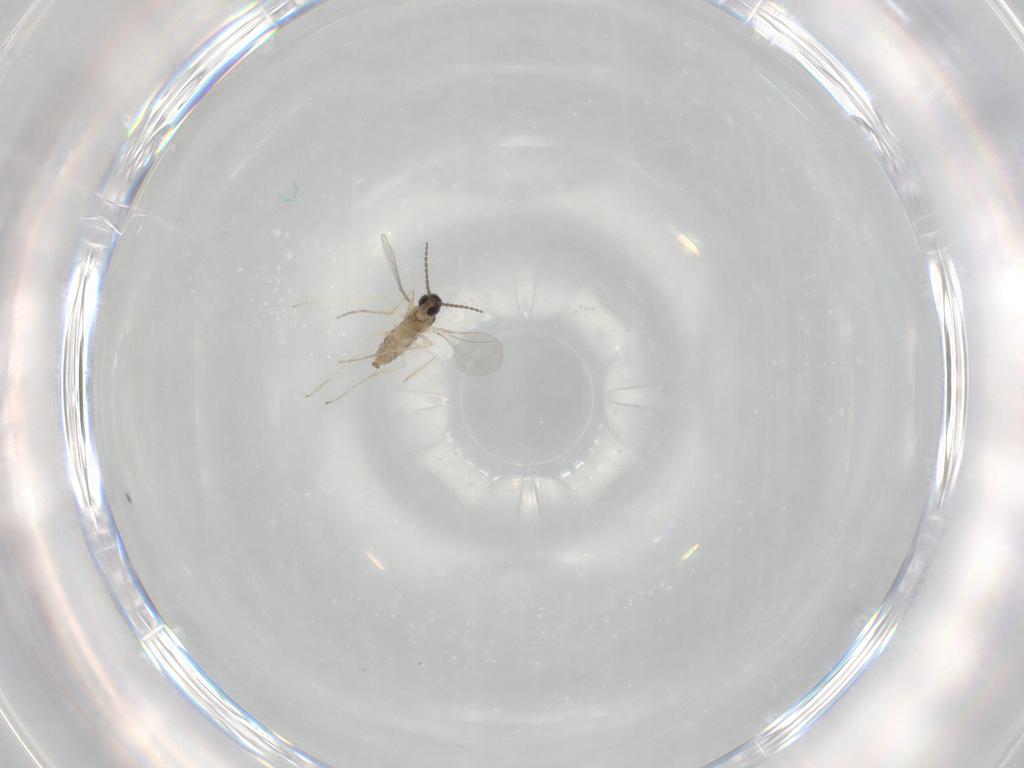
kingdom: Animalia
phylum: Arthropoda
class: Insecta
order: Diptera
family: Cecidomyiidae
